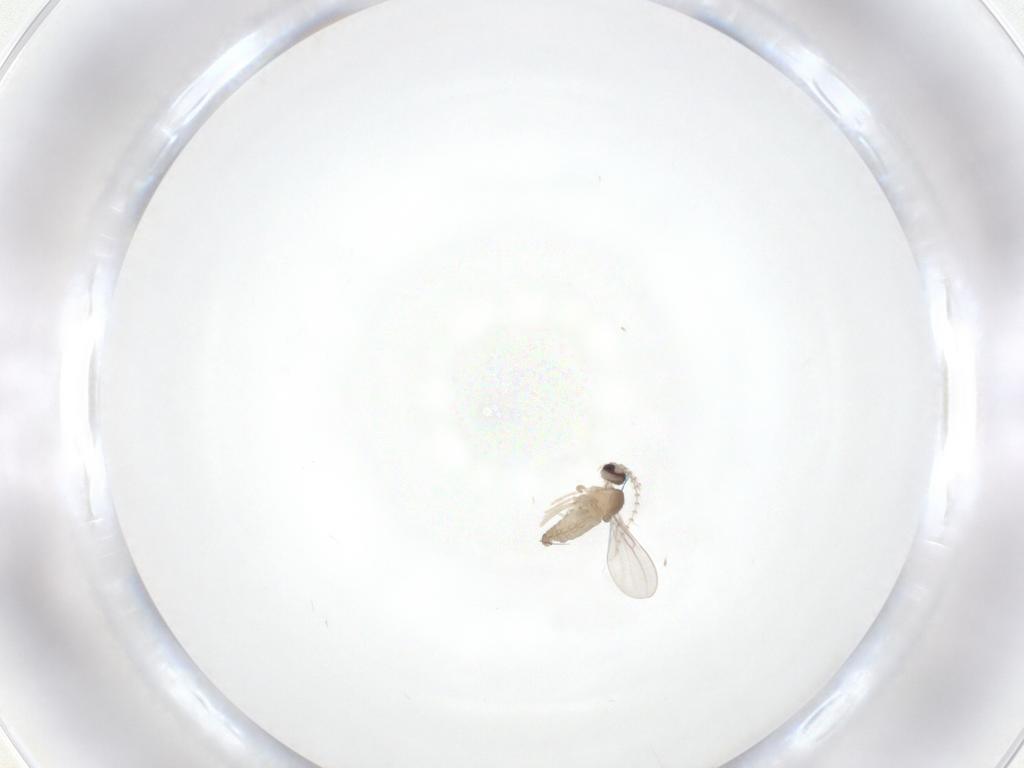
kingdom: Animalia
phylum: Arthropoda
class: Insecta
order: Diptera
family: Cecidomyiidae
